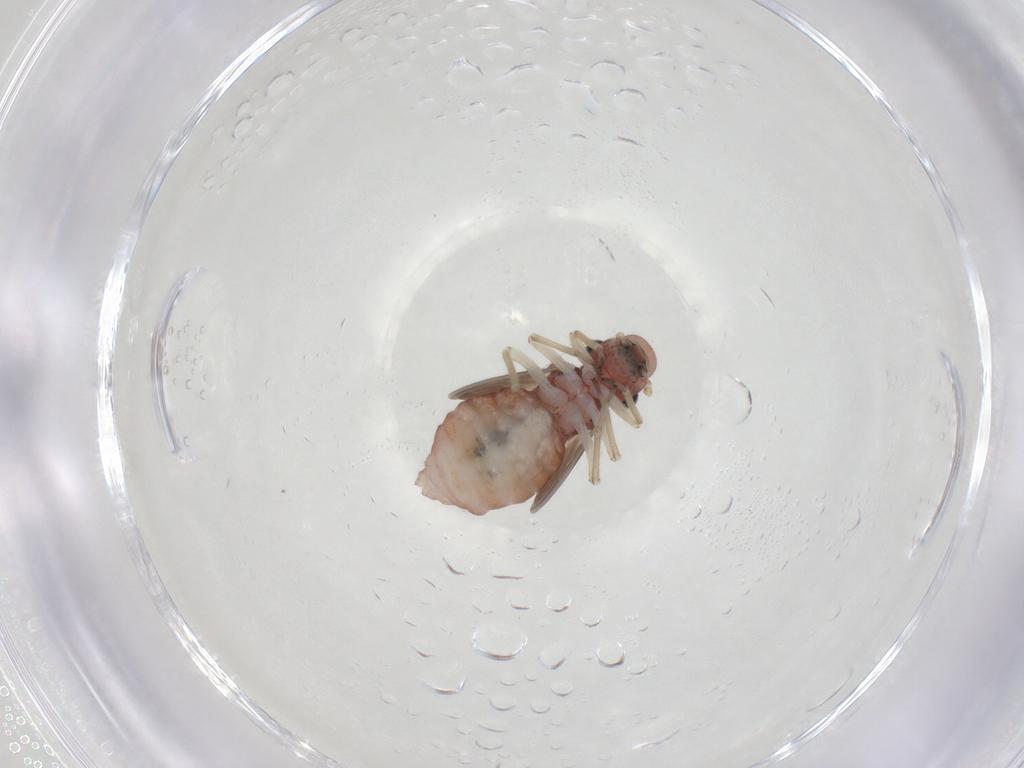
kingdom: Animalia
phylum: Arthropoda
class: Insecta
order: Psocodea
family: Caeciliusidae
